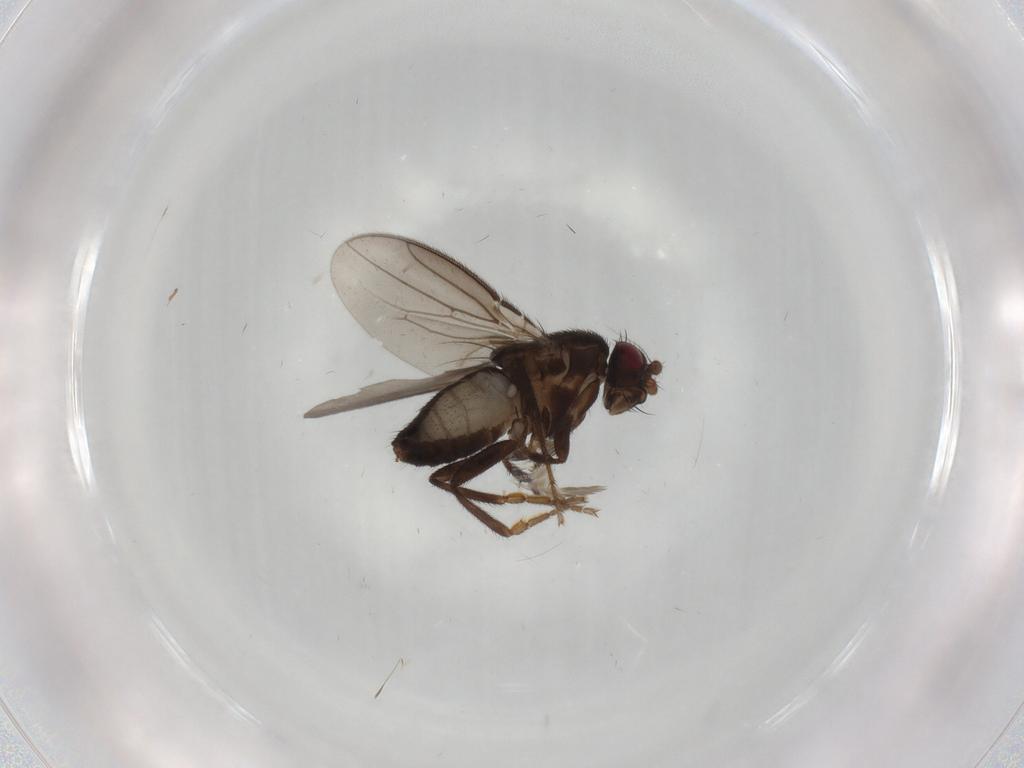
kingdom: Animalia
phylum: Arthropoda
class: Insecta
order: Diptera
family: Sphaeroceridae
